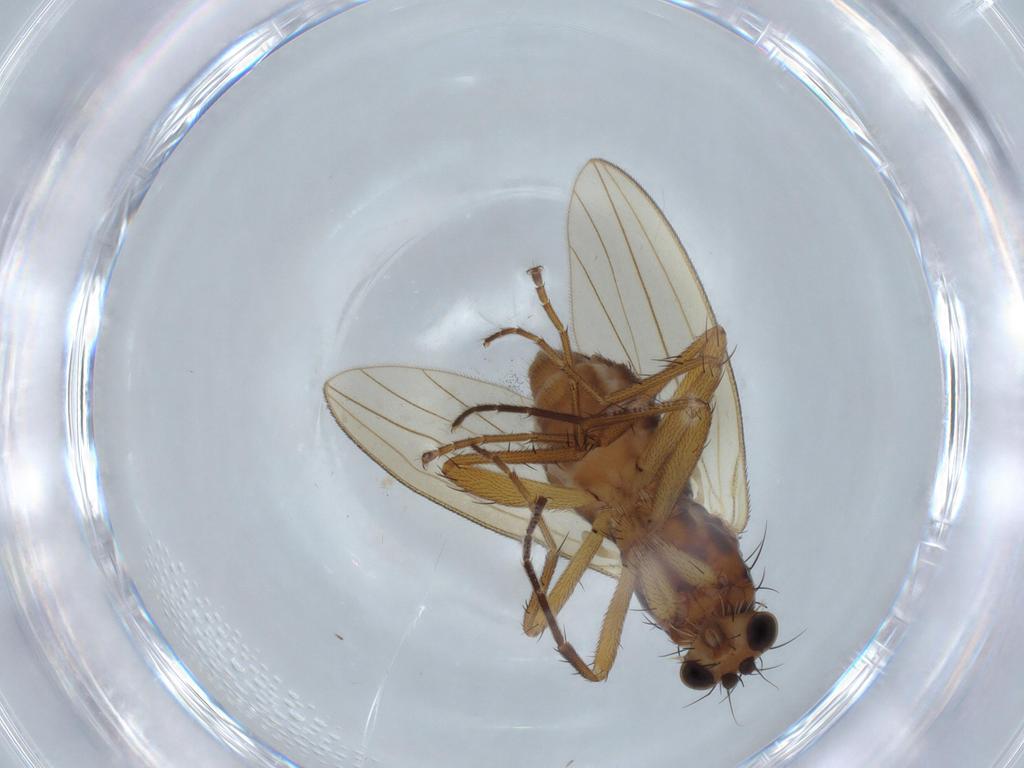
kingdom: Animalia
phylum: Arthropoda
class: Insecta
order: Diptera
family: Lonchopteridae
